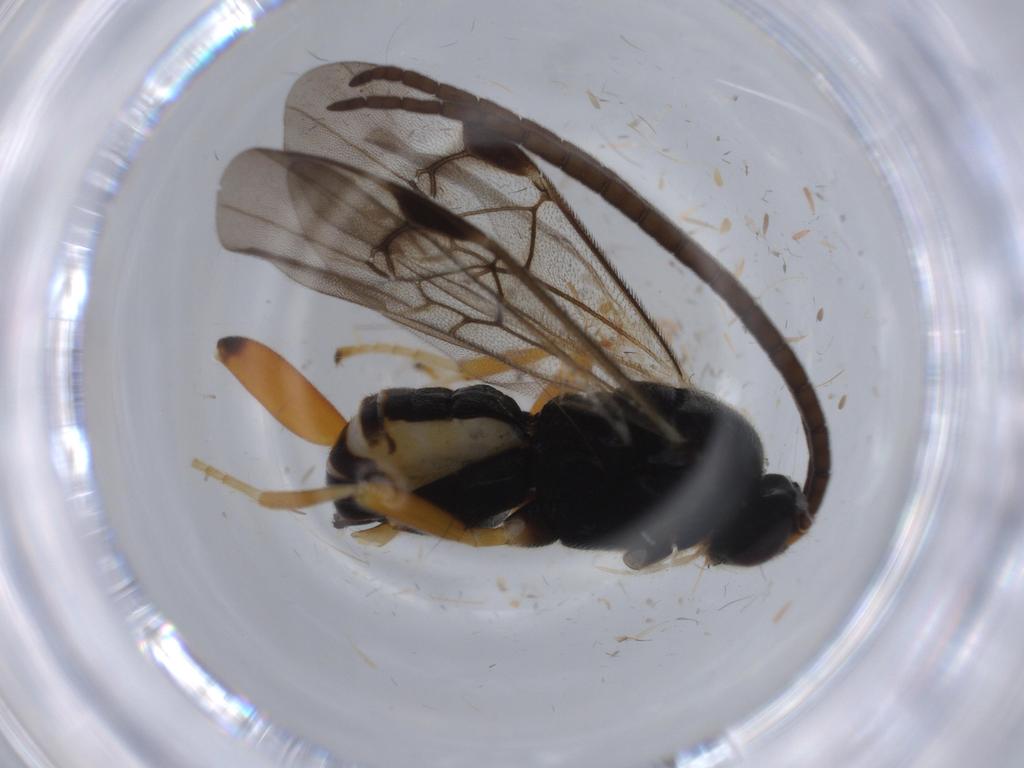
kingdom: Animalia
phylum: Arthropoda
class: Insecta
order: Hymenoptera
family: Braconidae
